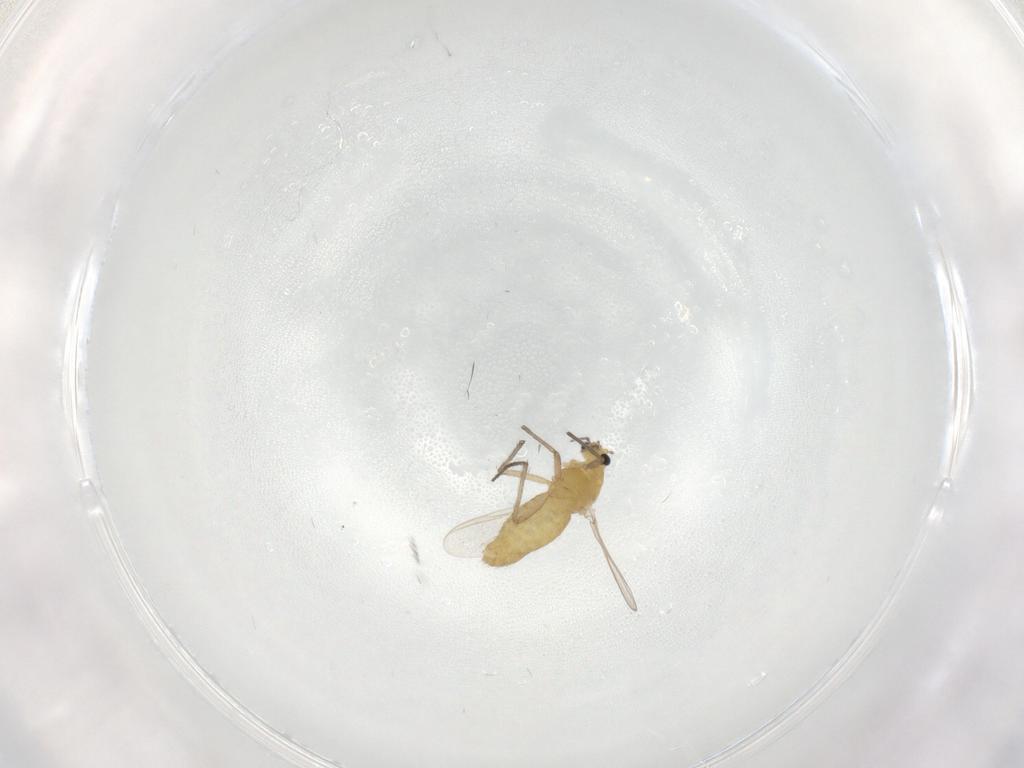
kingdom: Animalia
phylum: Arthropoda
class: Insecta
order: Diptera
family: Chironomidae
